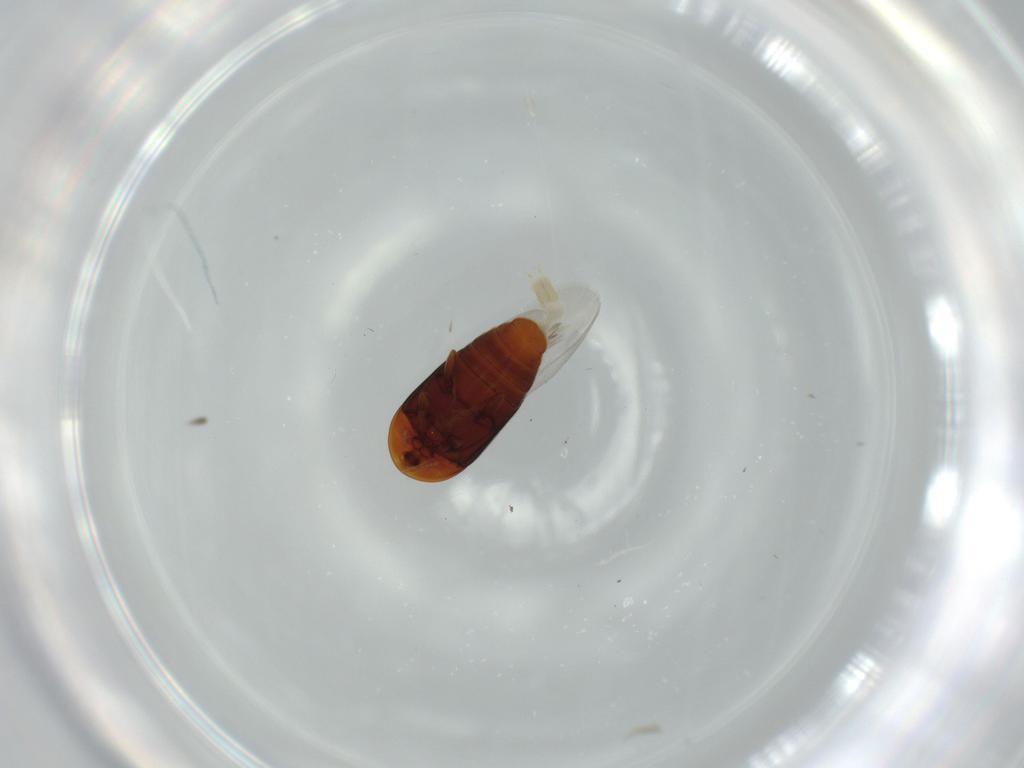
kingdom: Animalia
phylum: Arthropoda
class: Insecta
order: Coleoptera
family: Corylophidae
